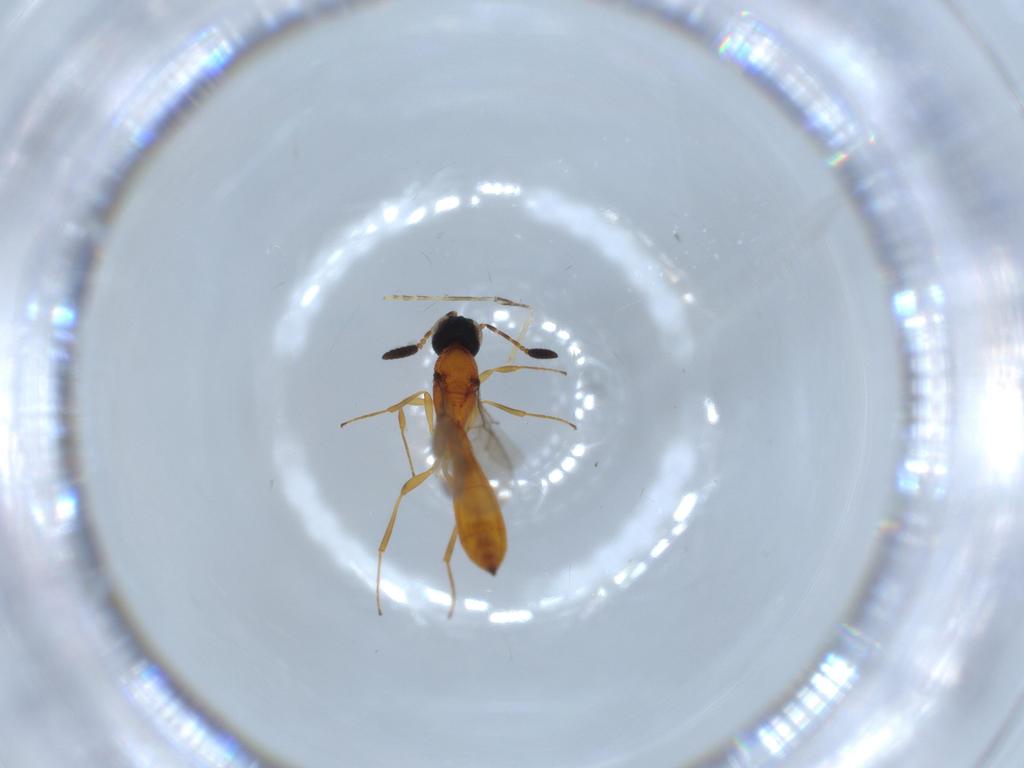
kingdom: Animalia
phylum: Arthropoda
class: Insecta
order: Hymenoptera
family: Scelionidae
